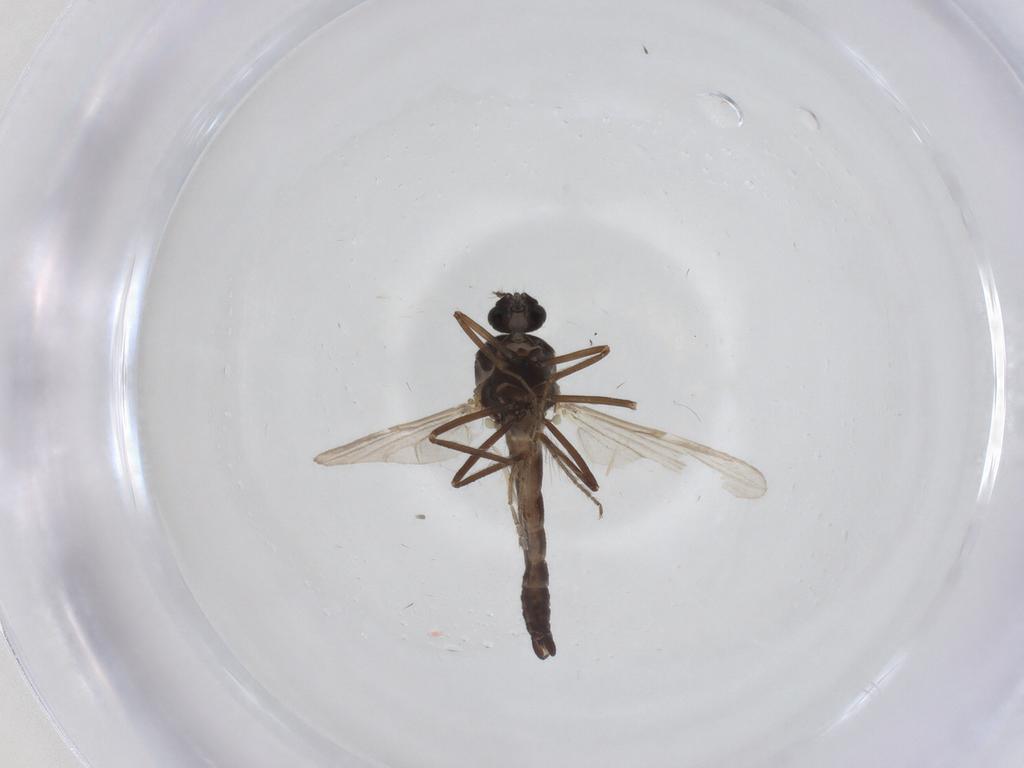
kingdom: Animalia
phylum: Arthropoda
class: Insecta
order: Diptera
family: Ceratopogonidae
